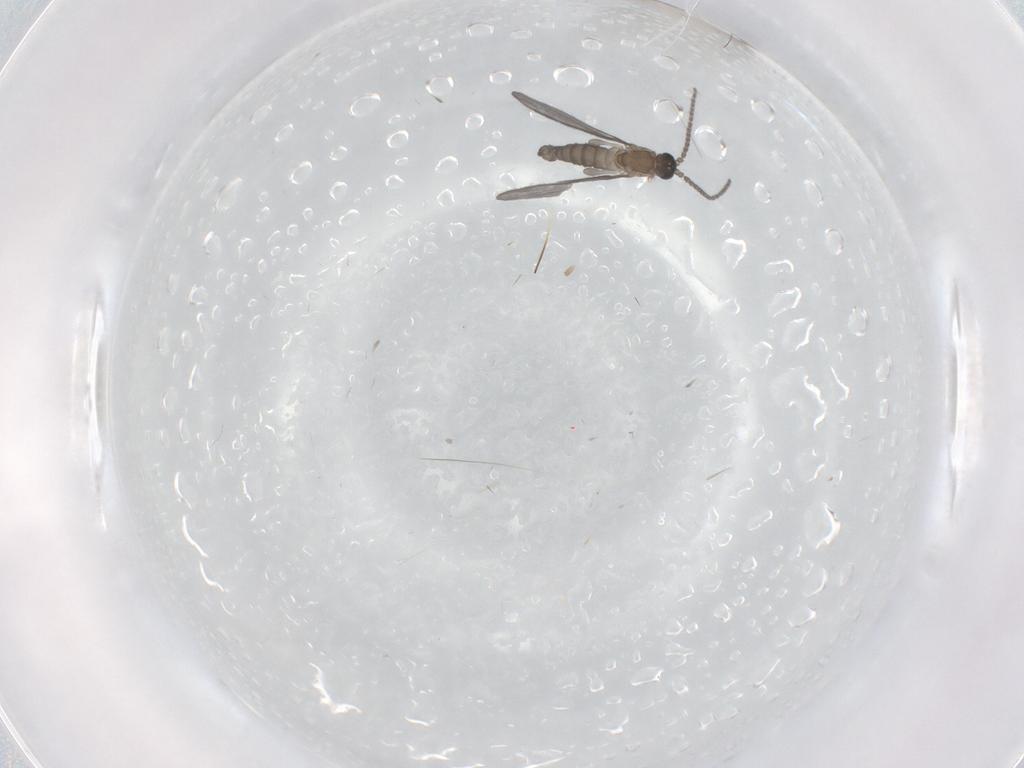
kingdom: Animalia
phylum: Arthropoda
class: Insecta
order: Diptera
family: Sciaridae
